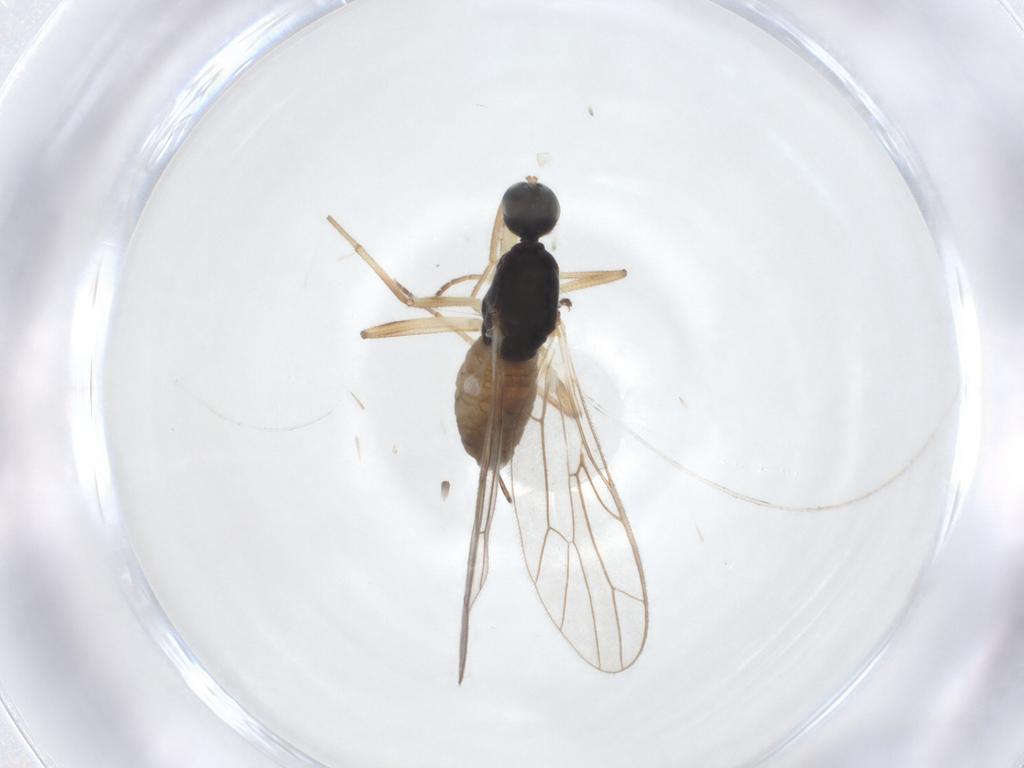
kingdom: Animalia
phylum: Arthropoda
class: Insecta
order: Diptera
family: Empididae
